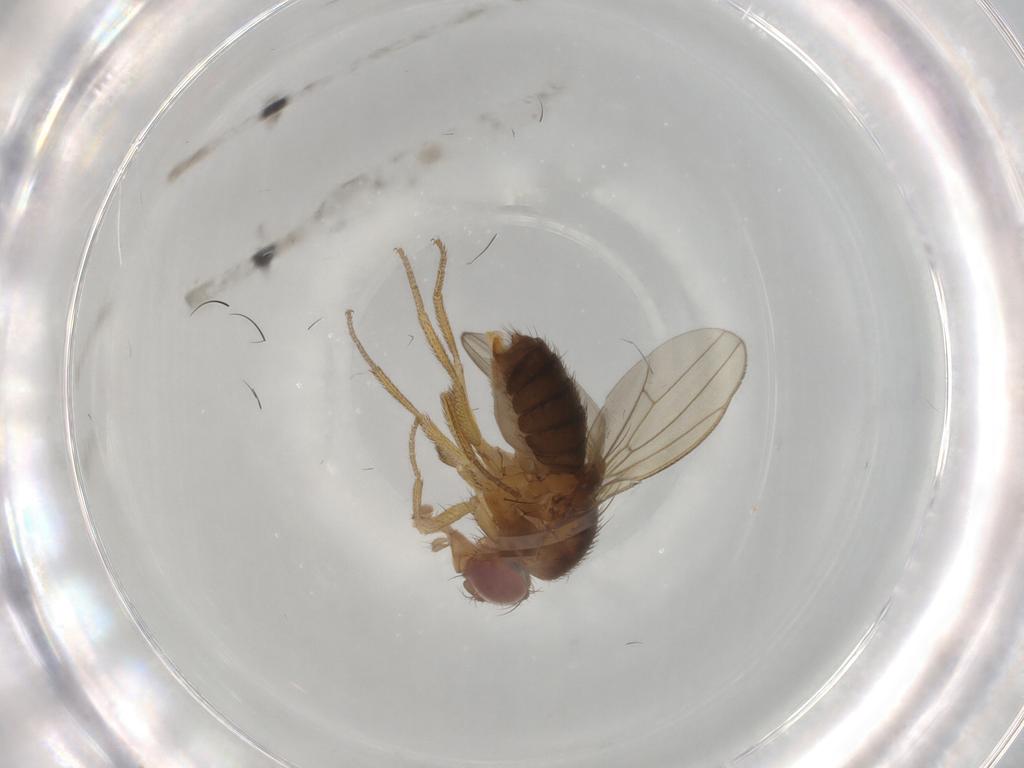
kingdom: Animalia
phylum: Arthropoda
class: Insecta
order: Diptera
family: Drosophilidae
